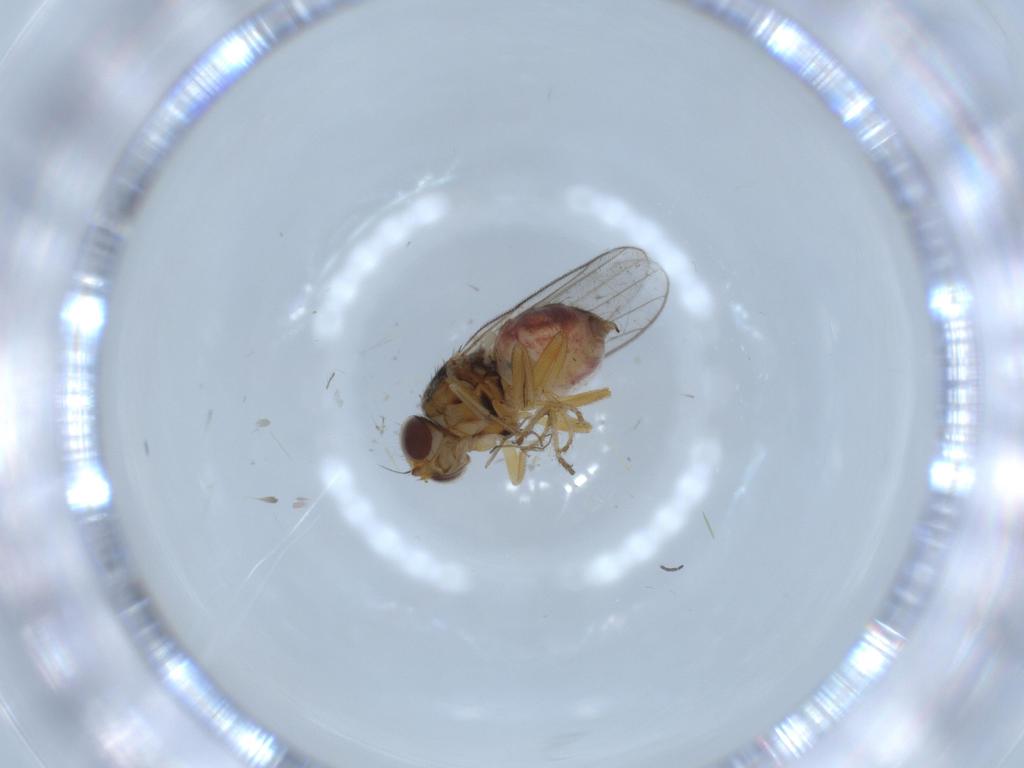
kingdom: Animalia
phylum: Arthropoda
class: Insecta
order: Diptera
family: Chloropidae
